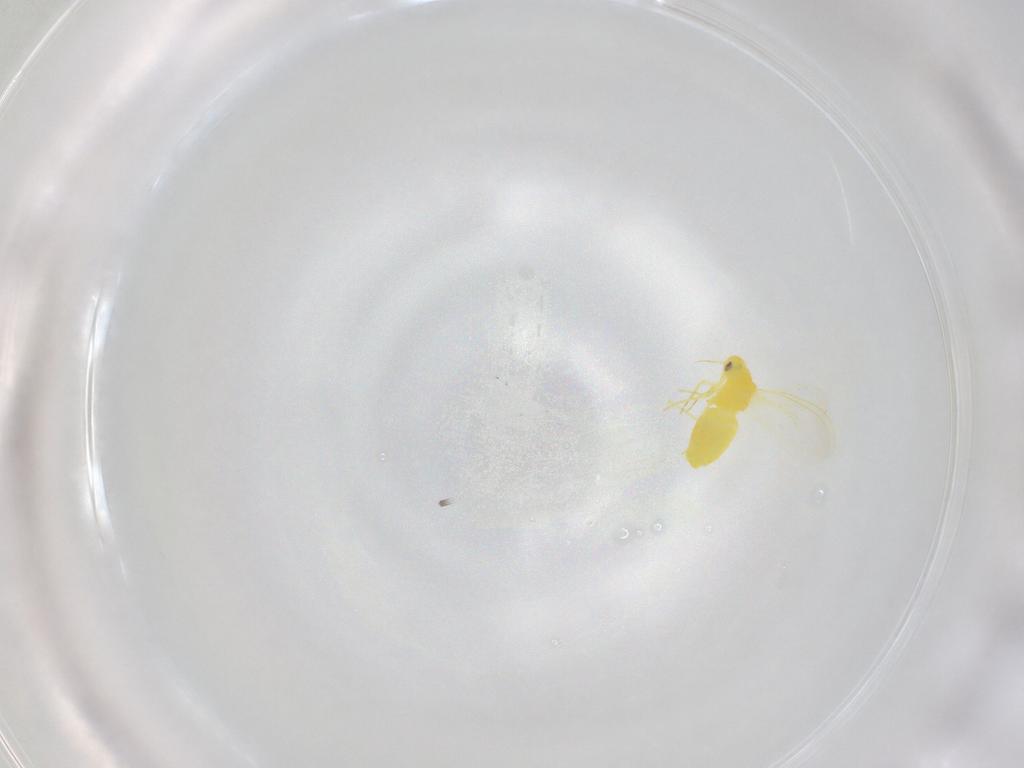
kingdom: Animalia
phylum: Arthropoda
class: Insecta
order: Hemiptera
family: Aleyrodidae
